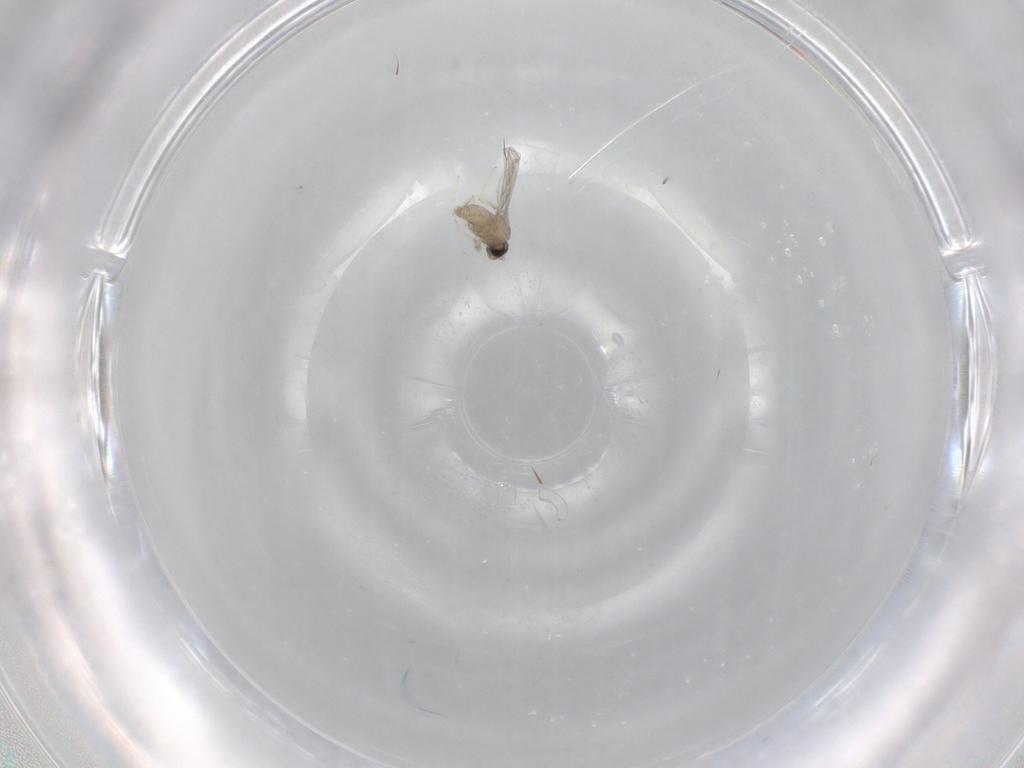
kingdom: Animalia
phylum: Arthropoda
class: Insecta
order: Diptera
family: Cecidomyiidae
